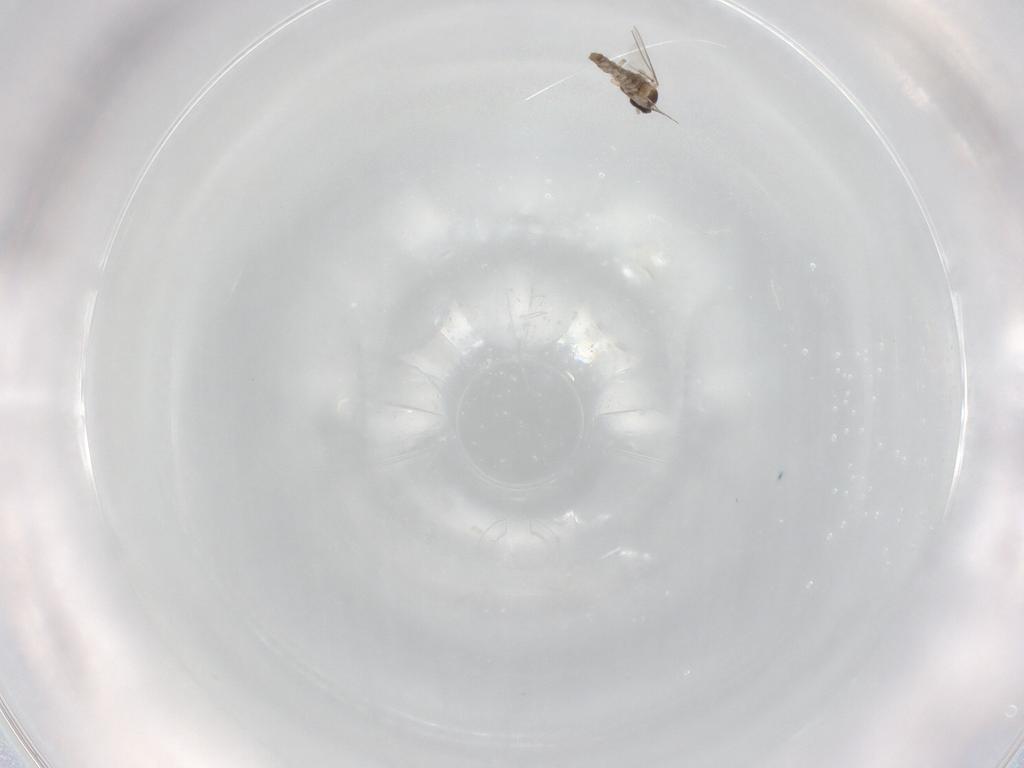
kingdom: Animalia
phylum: Arthropoda
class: Insecta
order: Diptera
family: Cecidomyiidae
